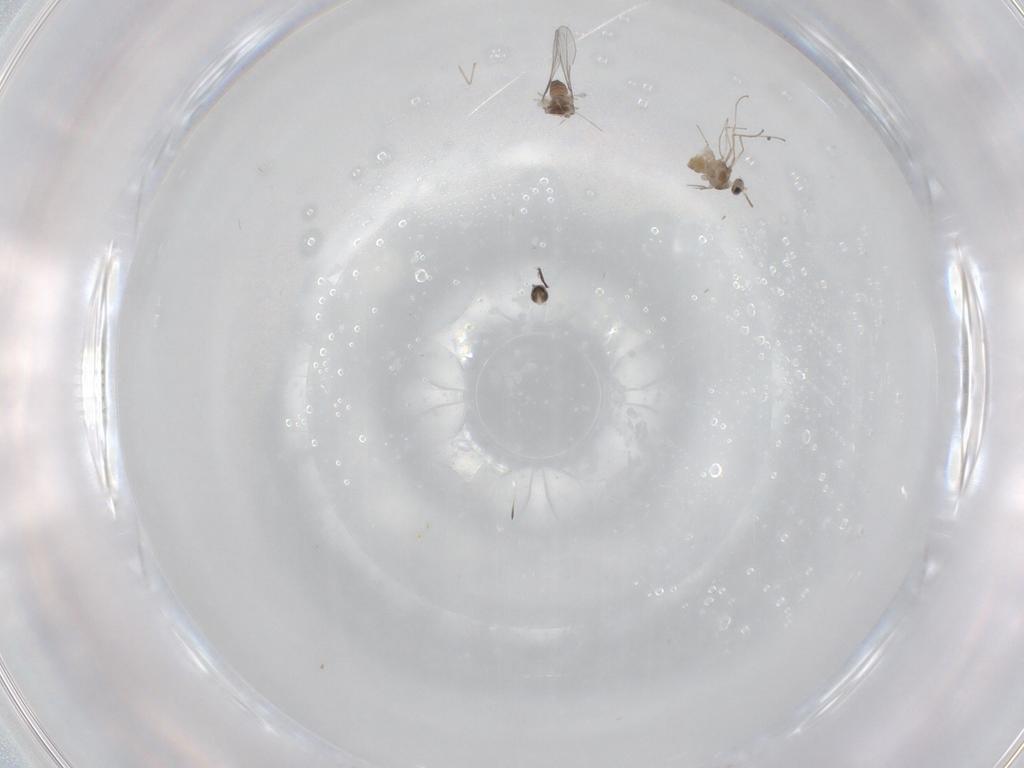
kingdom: Animalia
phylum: Arthropoda
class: Insecta
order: Diptera
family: Cecidomyiidae
